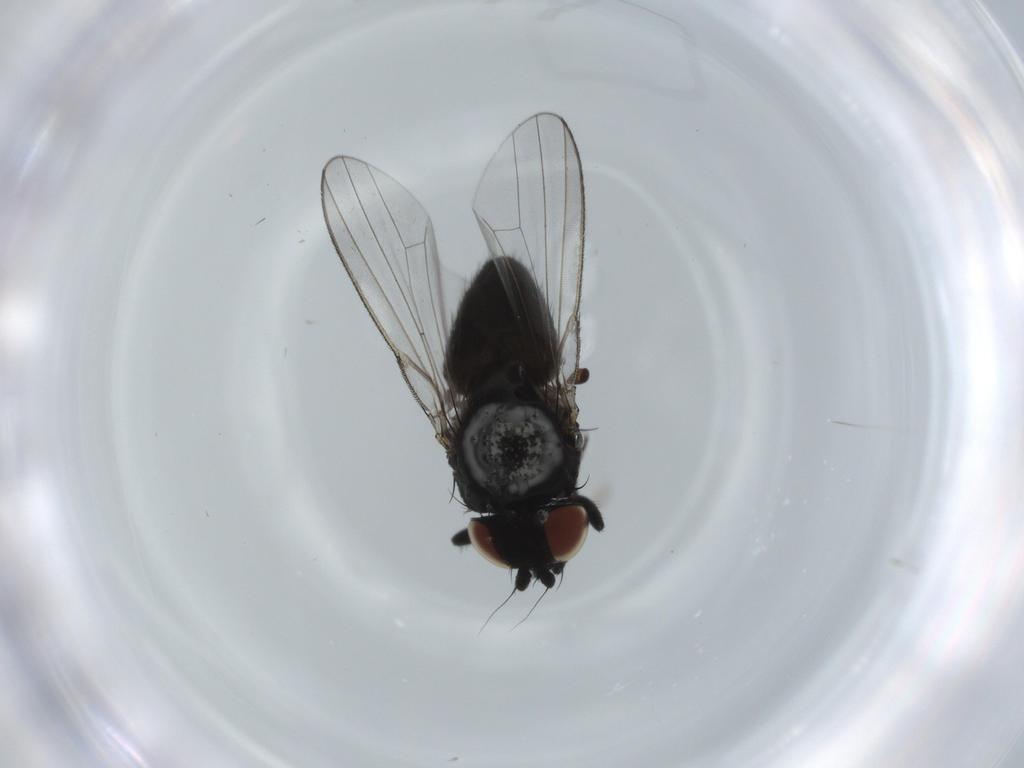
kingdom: Animalia
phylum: Arthropoda
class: Insecta
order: Diptera
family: Milichiidae
